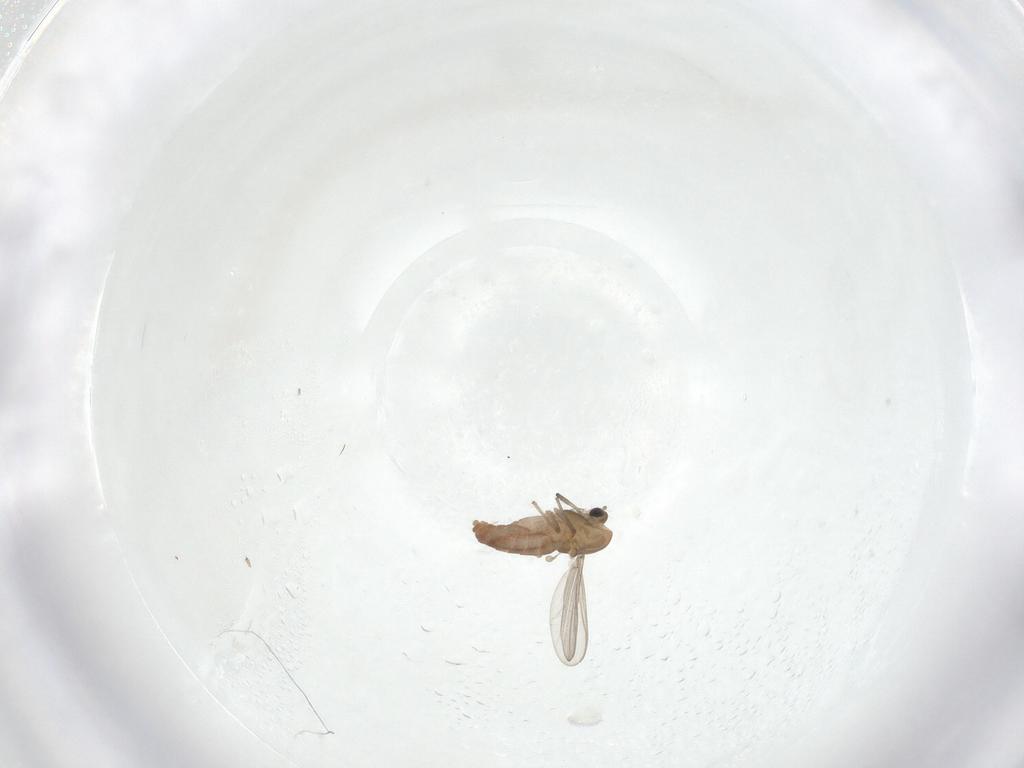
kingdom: Animalia
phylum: Arthropoda
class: Insecta
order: Diptera
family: Chironomidae
